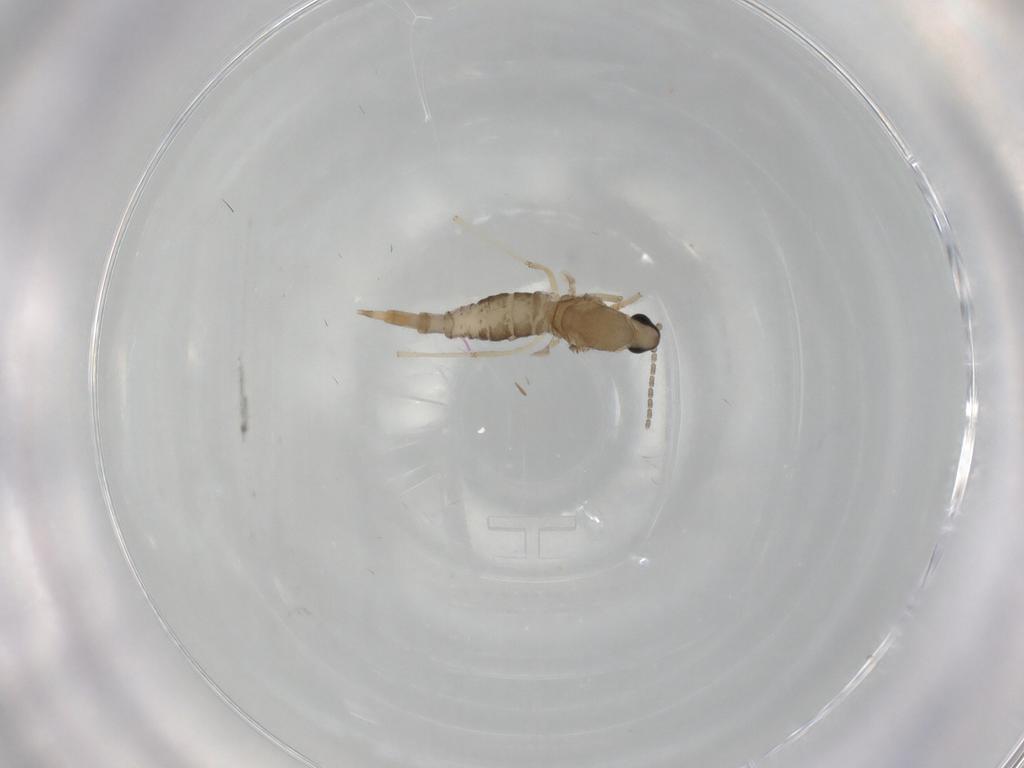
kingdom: Animalia
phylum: Arthropoda
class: Insecta
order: Diptera
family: Cecidomyiidae
